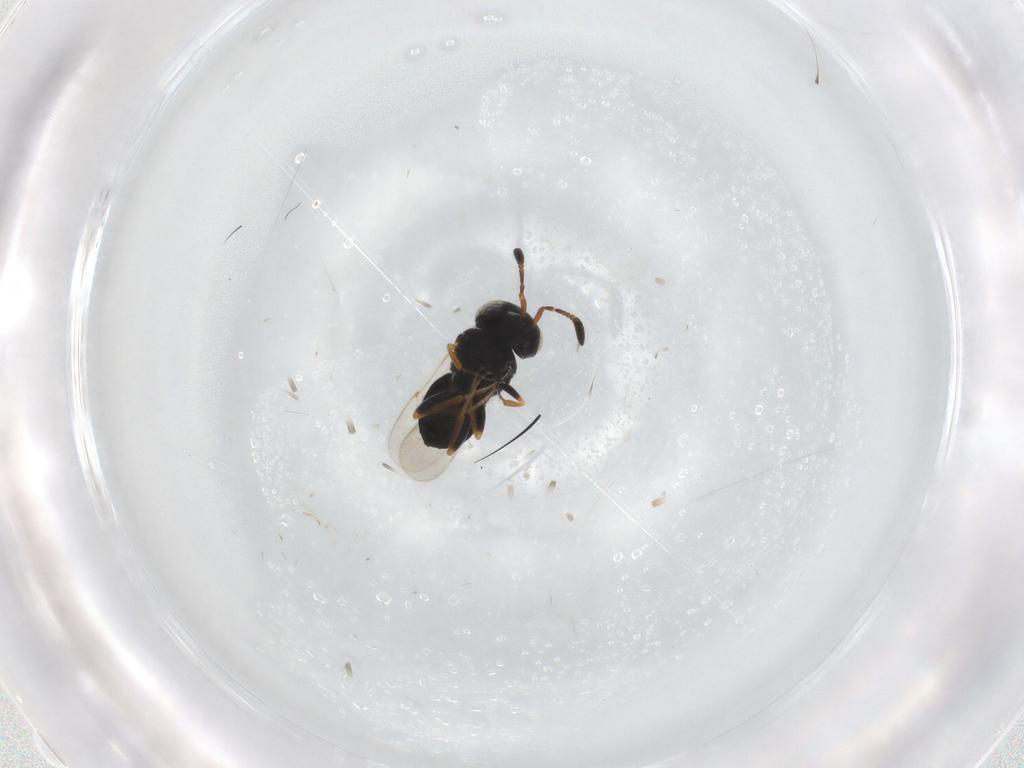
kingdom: Animalia
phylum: Arthropoda
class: Insecta
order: Coleoptera
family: Curculionidae
